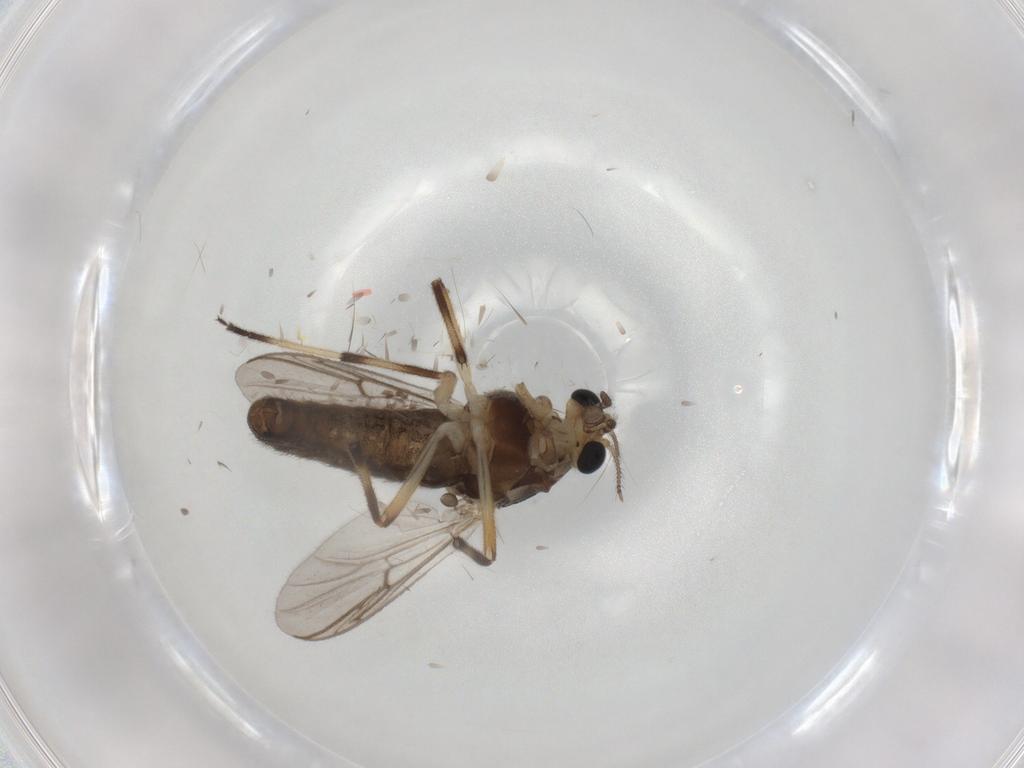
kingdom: Animalia
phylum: Arthropoda
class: Insecta
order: Diptera
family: Chironomidae
